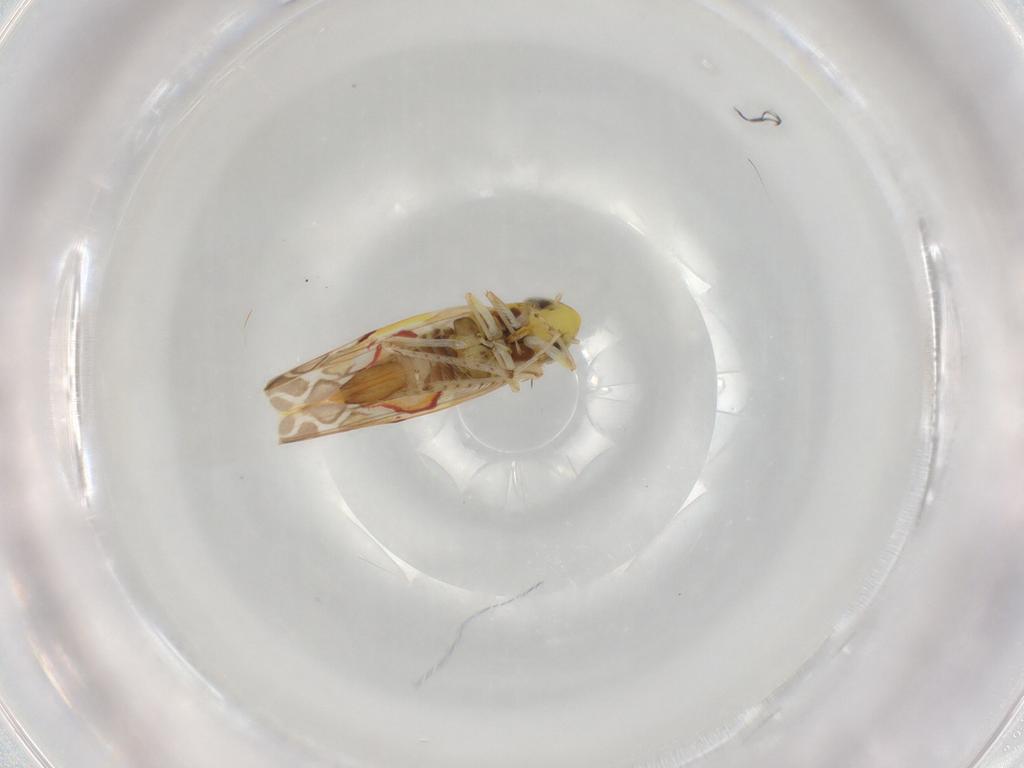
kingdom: Animalia
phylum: Arthropoda
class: Insecta
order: Hemiptera
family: Cicadellidae
